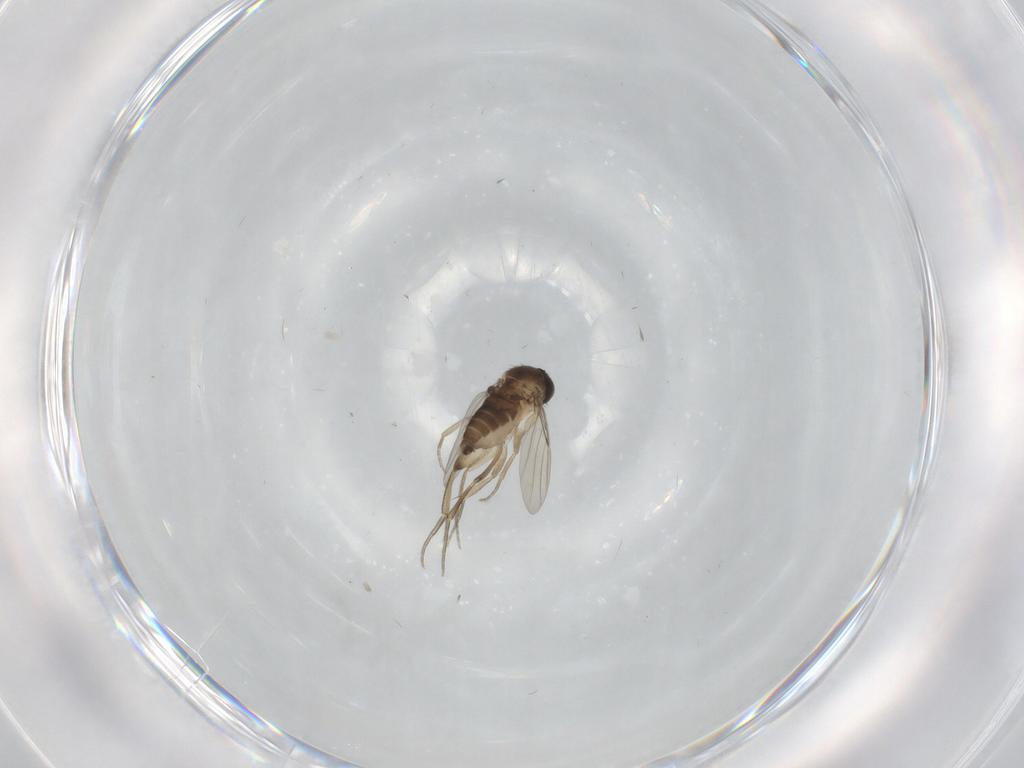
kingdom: Animalia
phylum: Arthropoda
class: Insecta
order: Diptera
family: Phoridae
